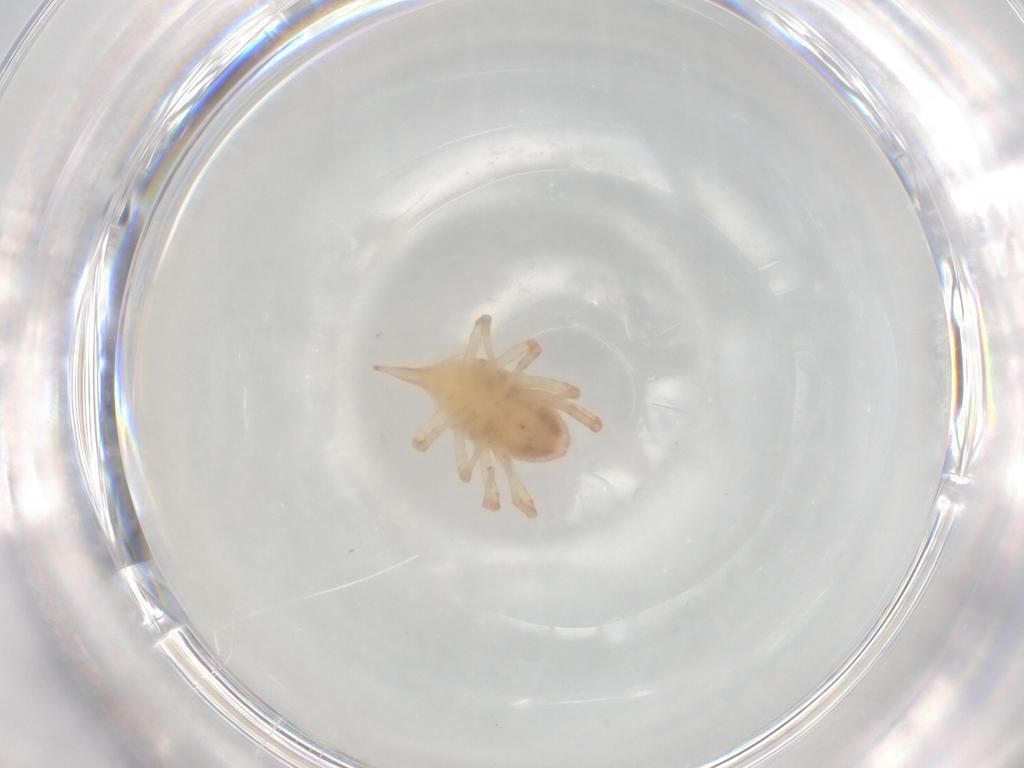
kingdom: Animalia
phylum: Arthropoda
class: Arachnida
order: Trombidiformes
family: Bdellidae
